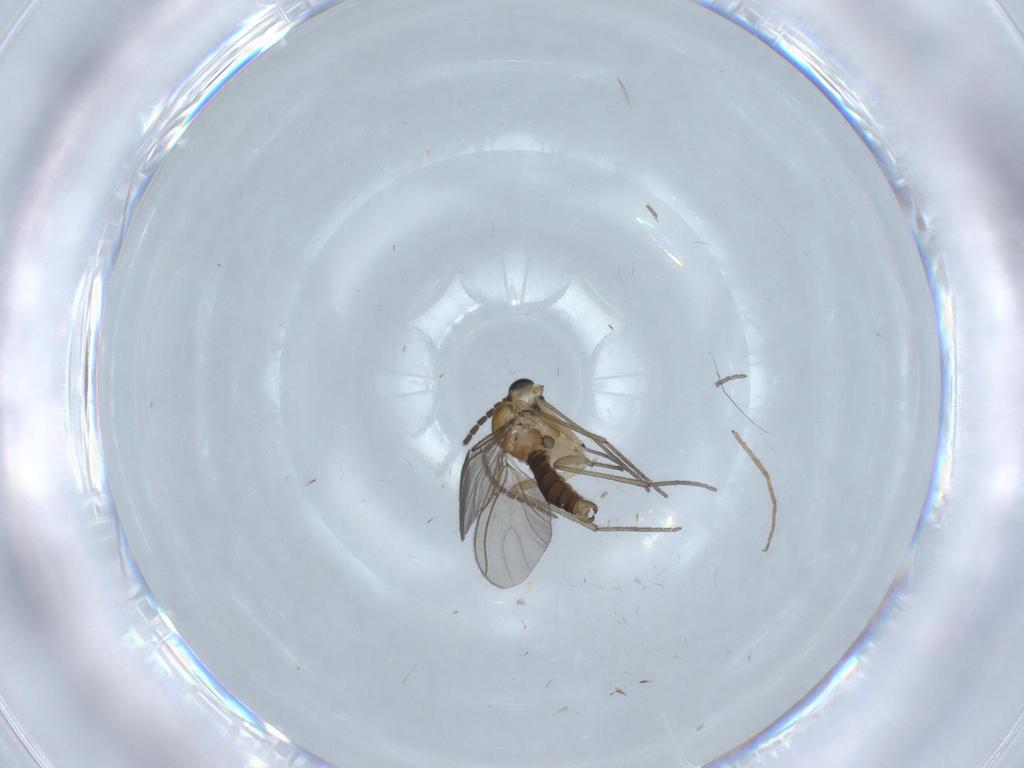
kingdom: Animalia
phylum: Arthropoda
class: Insecta
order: Diptera
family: Sciaridae
